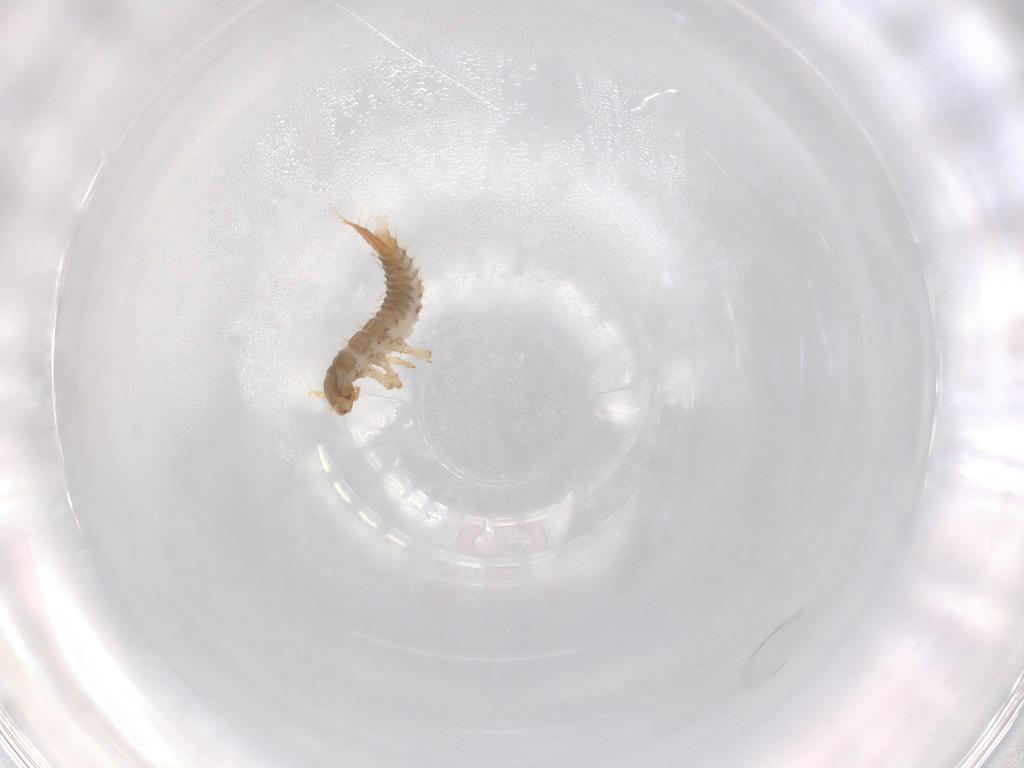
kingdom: Animalia
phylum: Arthropoda
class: Insecta
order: Coleoptera
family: Staphylinidae
